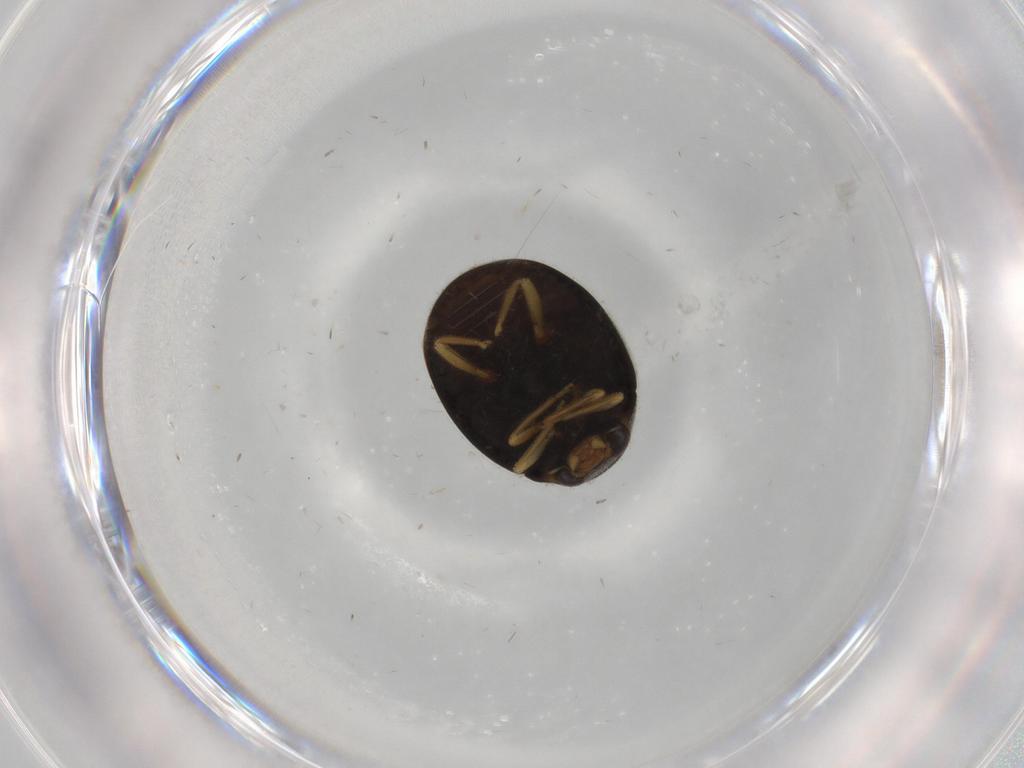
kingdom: Animalia
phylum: Arthropoda
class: Insecta
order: Coleoptera
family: Coccinellidae
